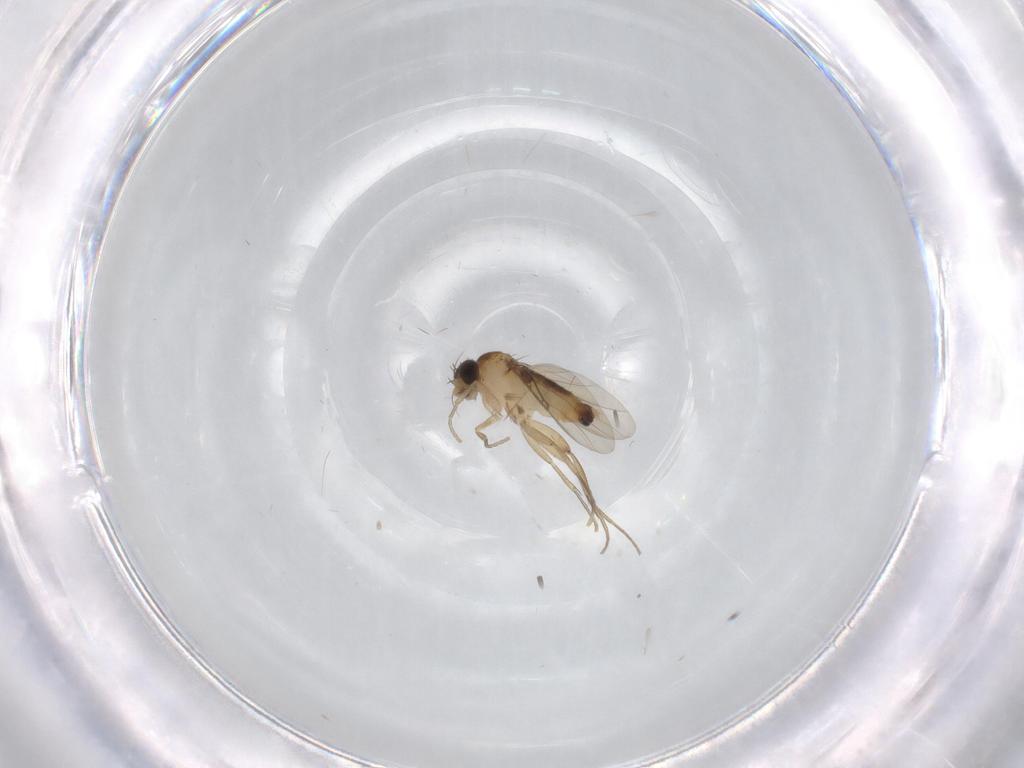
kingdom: Animalia
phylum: Arthropoda
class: Insecta
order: Diptera
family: Phoridae
